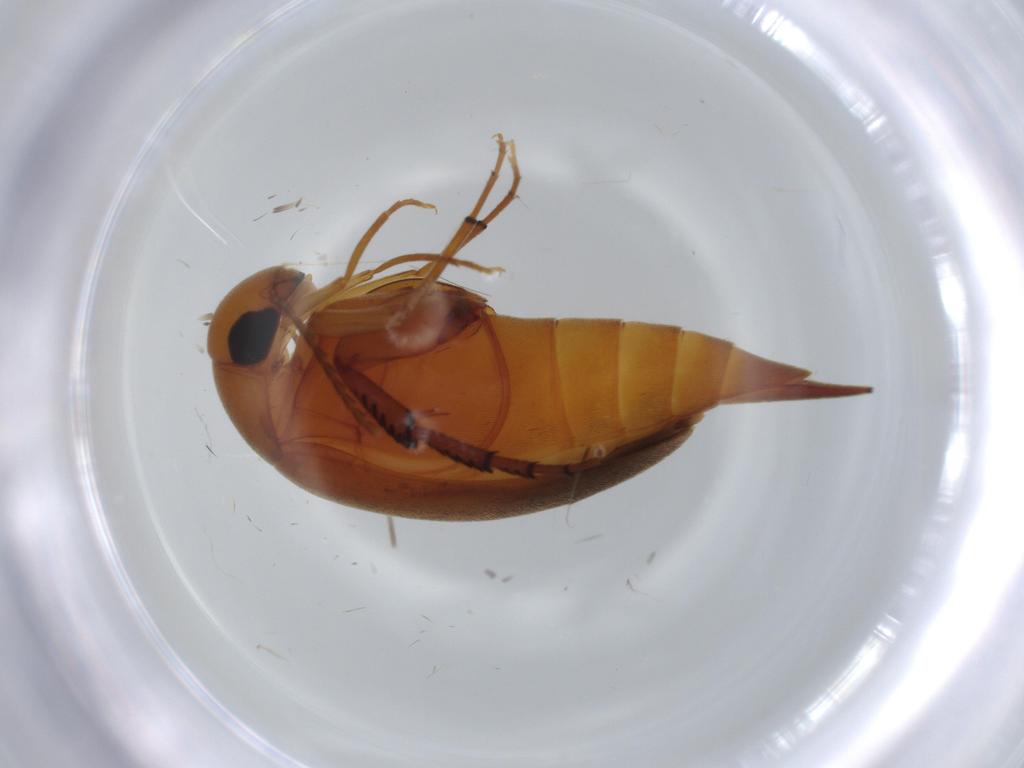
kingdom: Animalia
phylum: Arthropoda
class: Insecta
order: Coleoptera
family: Mordellidae
